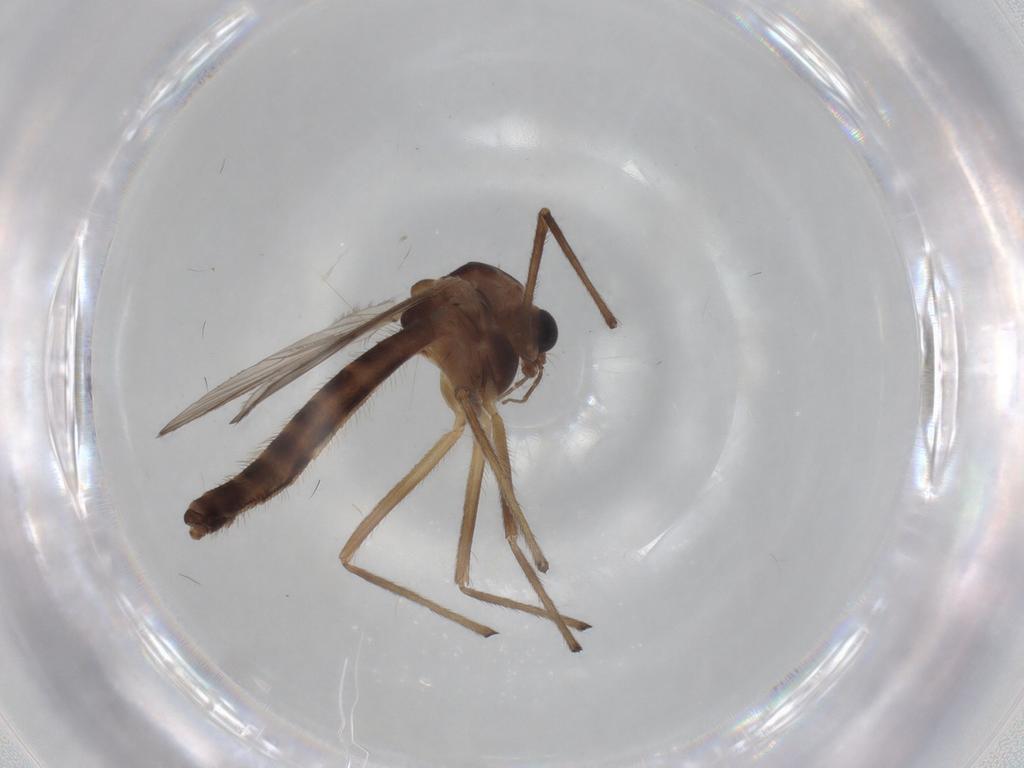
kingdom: Animalia
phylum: Arthropoda
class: Insecta
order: Diptera
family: Chironomidae
